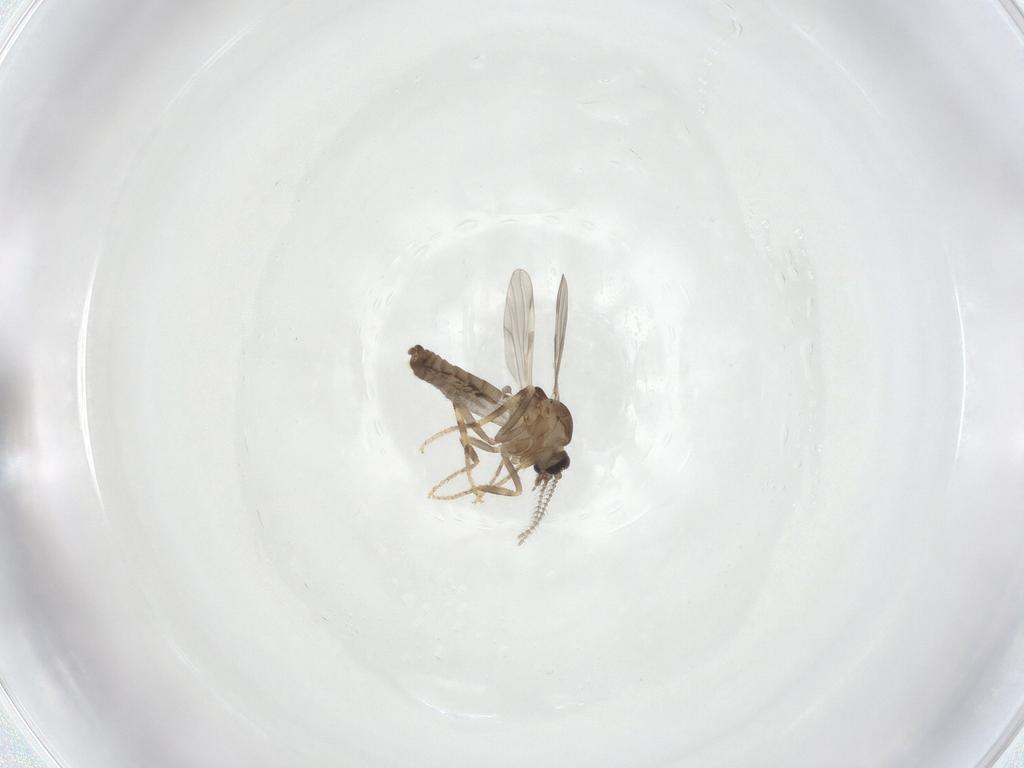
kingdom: Animalia
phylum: Arthropoda
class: Insecta
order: Diptera
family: Ceratopogonidae
